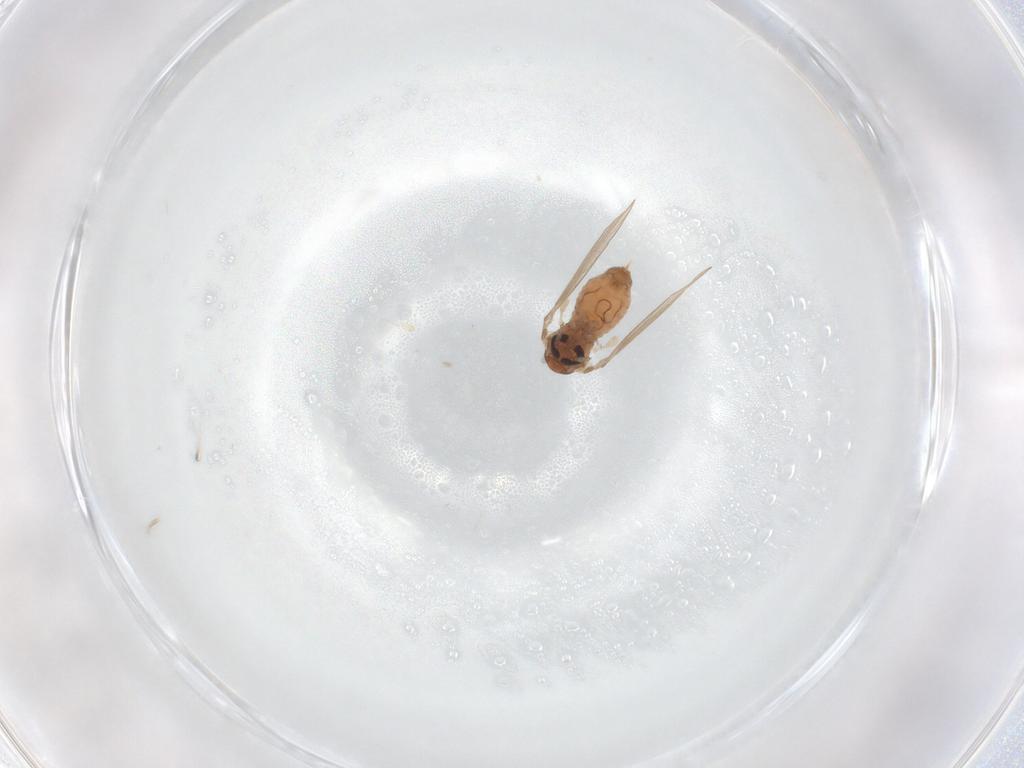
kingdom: Animalia
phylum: Arthropoda
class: Insecta
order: Diptera
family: Psychodidae
